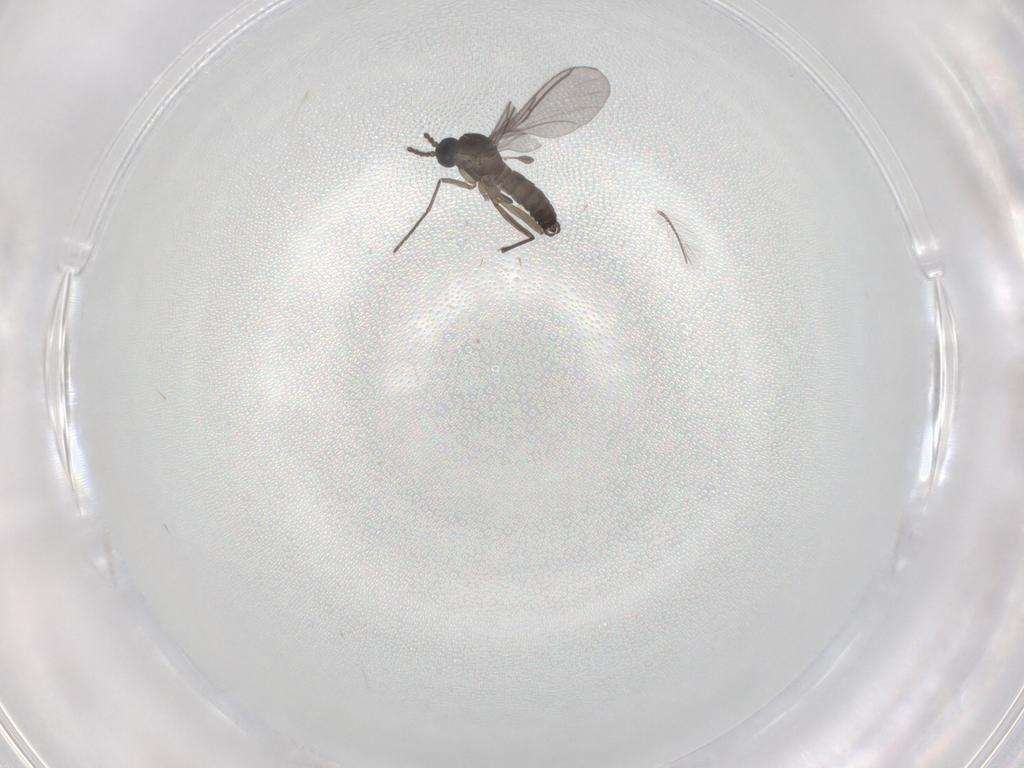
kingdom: Animalia
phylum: Arthropoda
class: Insecta
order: Diptera
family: Chironomidae
